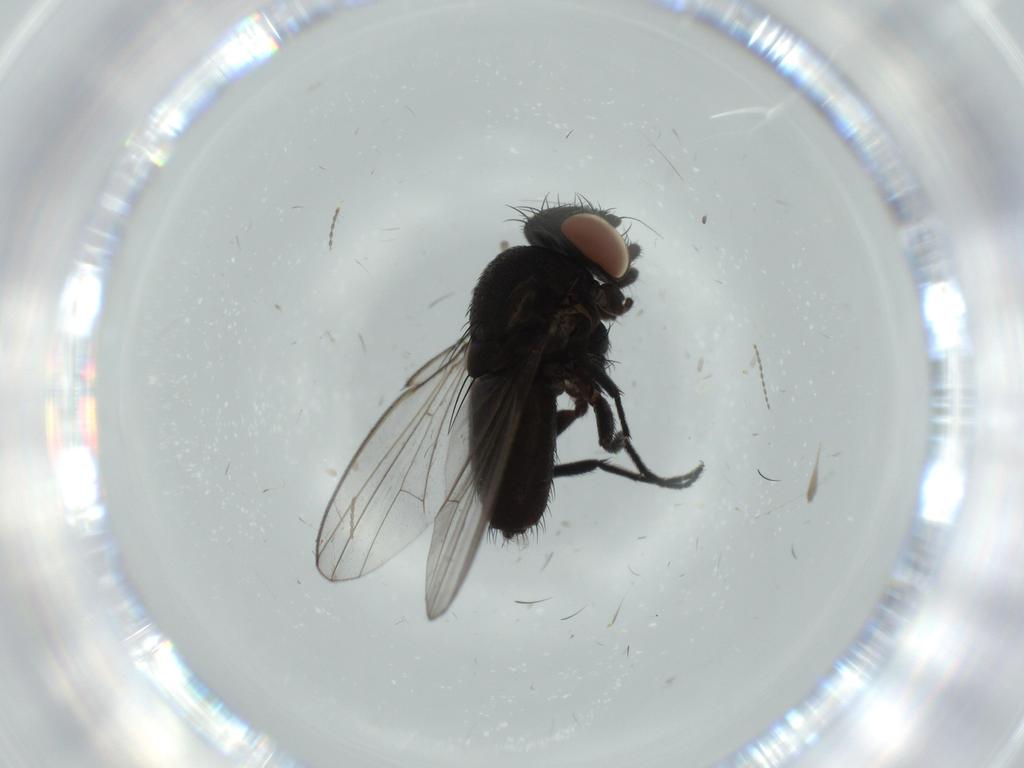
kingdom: Animalia
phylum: Arthropoda
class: Insecta
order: Diptera
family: Milichiidae
